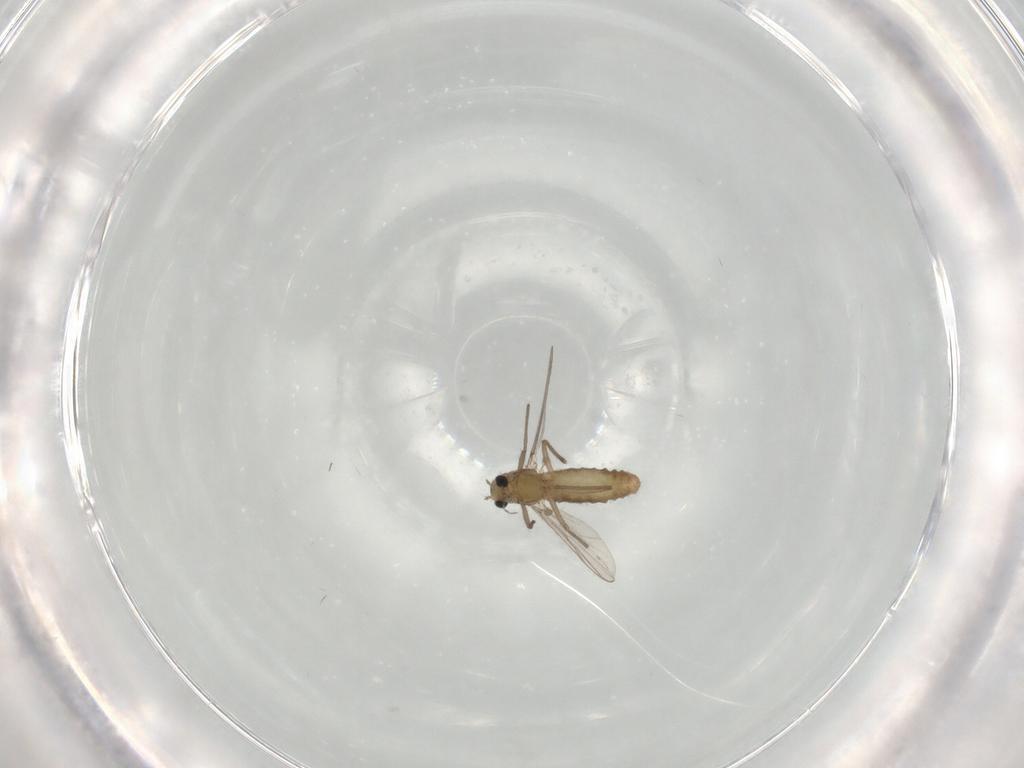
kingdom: Animalia
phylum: Arthropoda
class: Insecta
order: Diptera
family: Chironomidae
